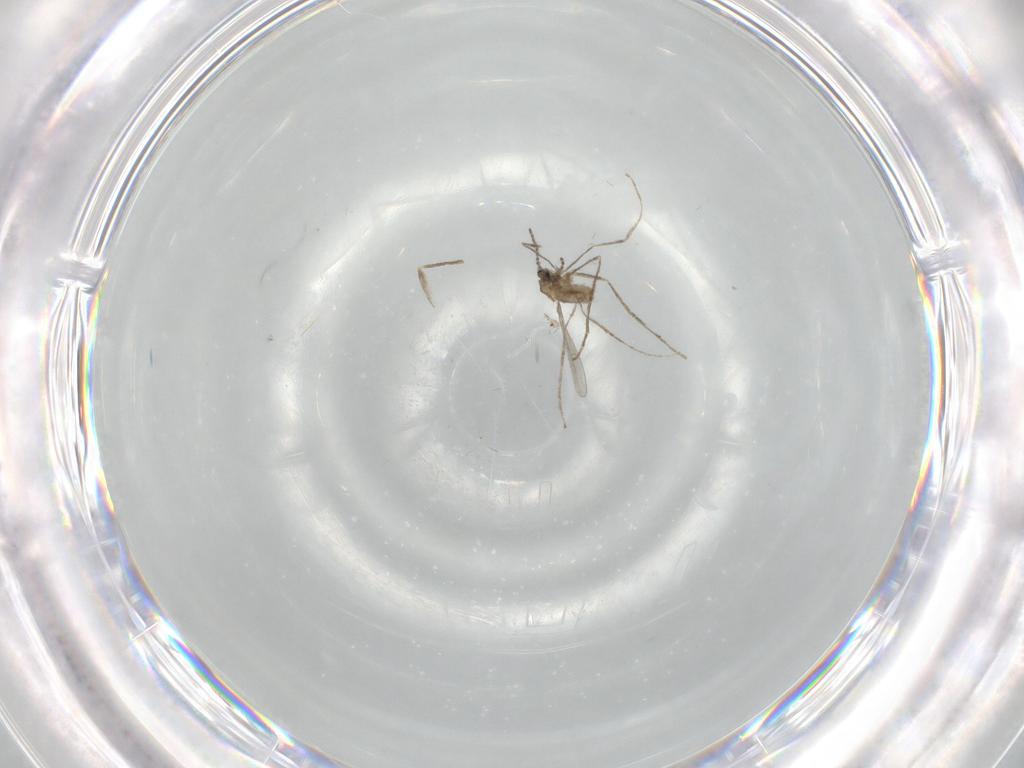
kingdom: Animalia
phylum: Arthropoda
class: Insecta
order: Diptera
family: Cecidomyiidae
